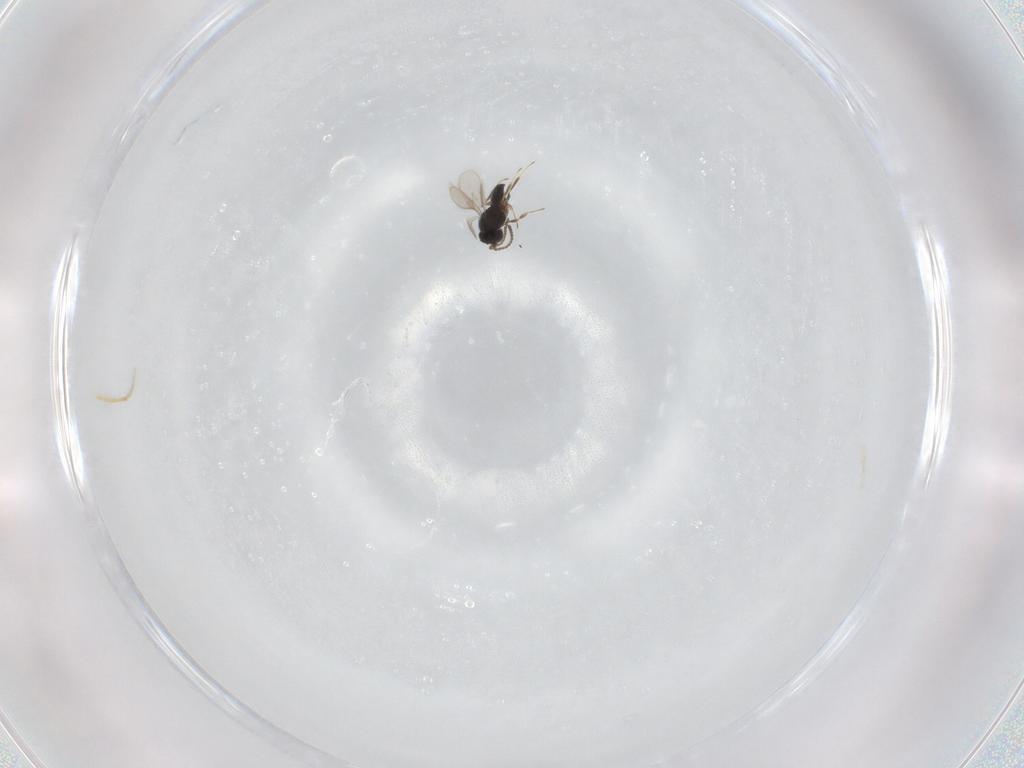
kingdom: Animalia
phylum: Arthropoda
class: Insecta
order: Hymenoptera
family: Scelionidae
